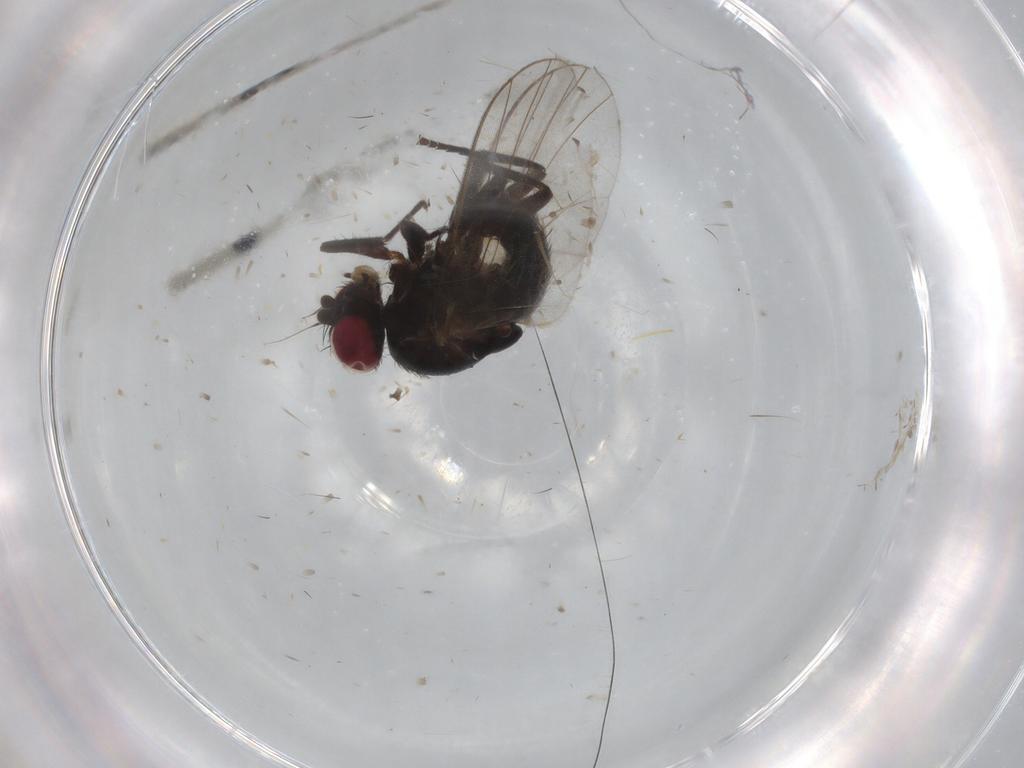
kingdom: Animalia
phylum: Arthropoda
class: Insecta
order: Diptera
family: Agromyzidae
